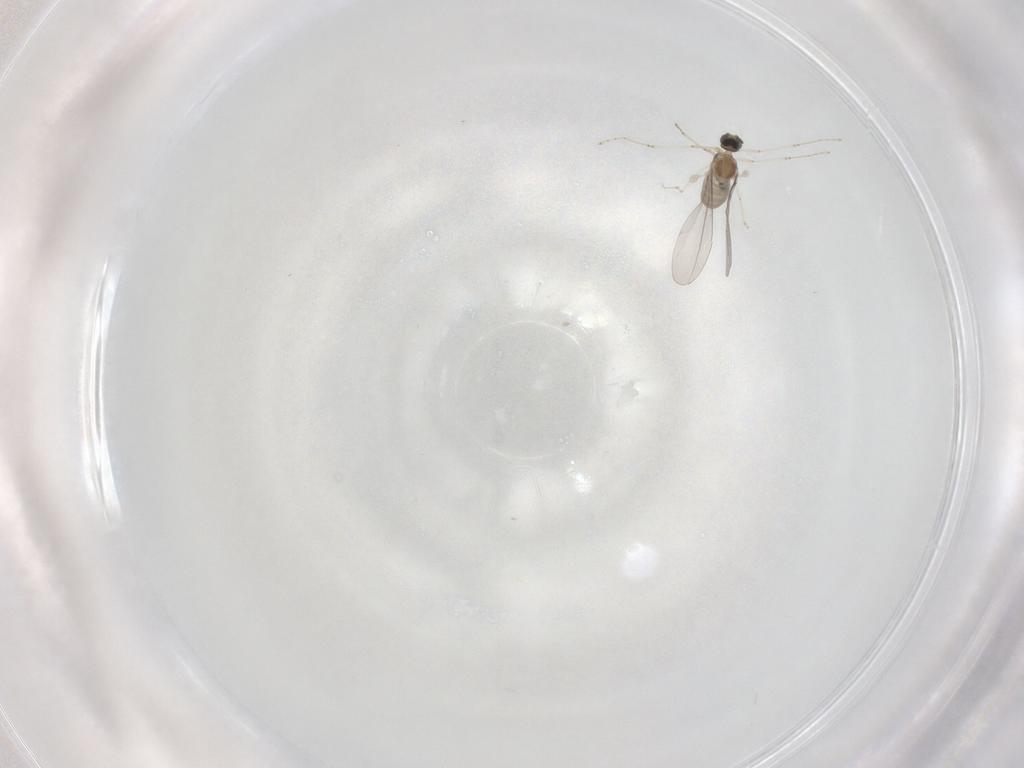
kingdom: Animalia
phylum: Arthropoda
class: Insecta
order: Diptera
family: Cecidomyiidae
